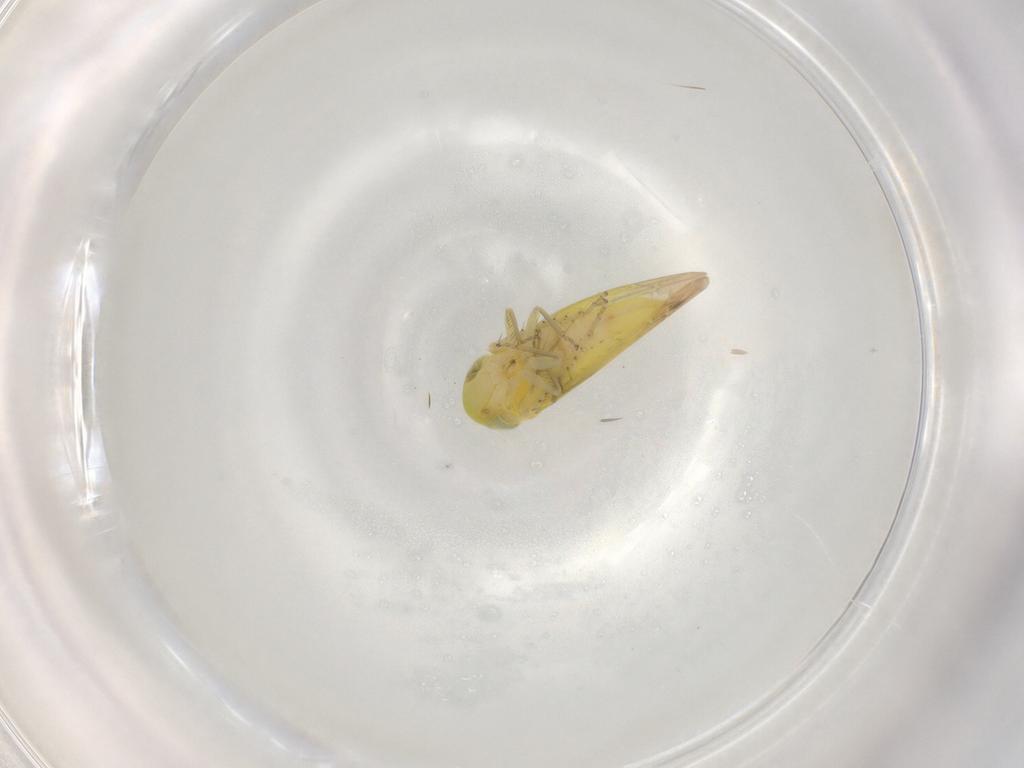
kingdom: Animalia
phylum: Arthropoda
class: Insecta
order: Hemiptera
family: Cicadellidae
